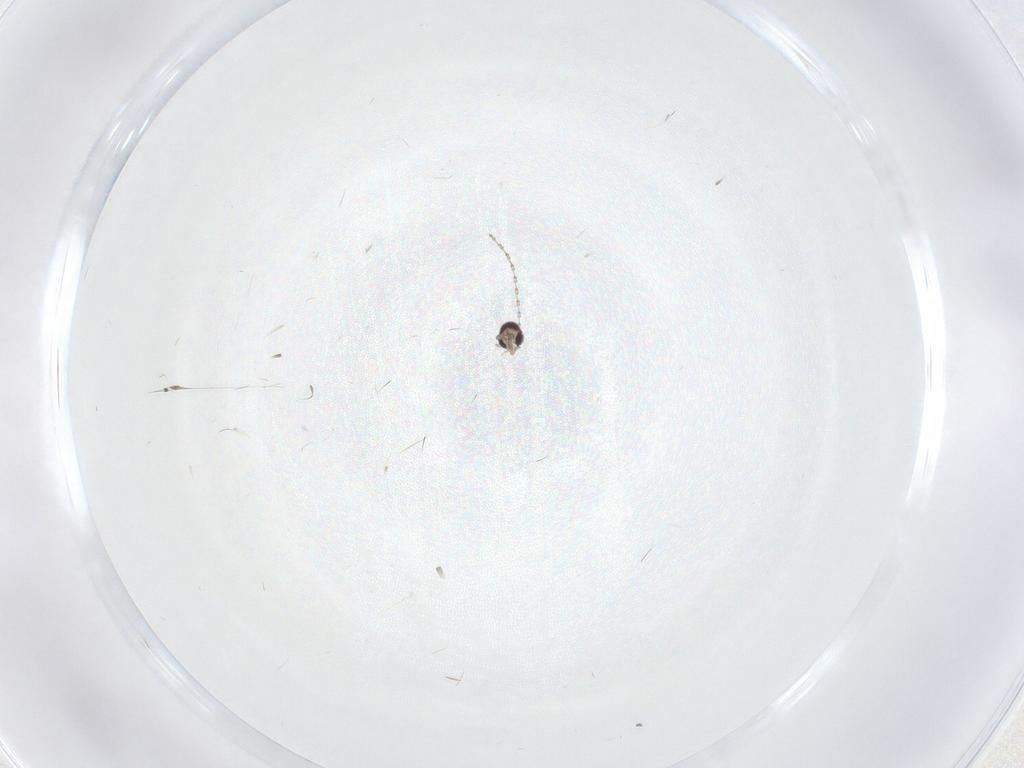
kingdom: Animalia
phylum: Arthropoda
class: Insecta
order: Diptera
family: Cecidomyiidae
